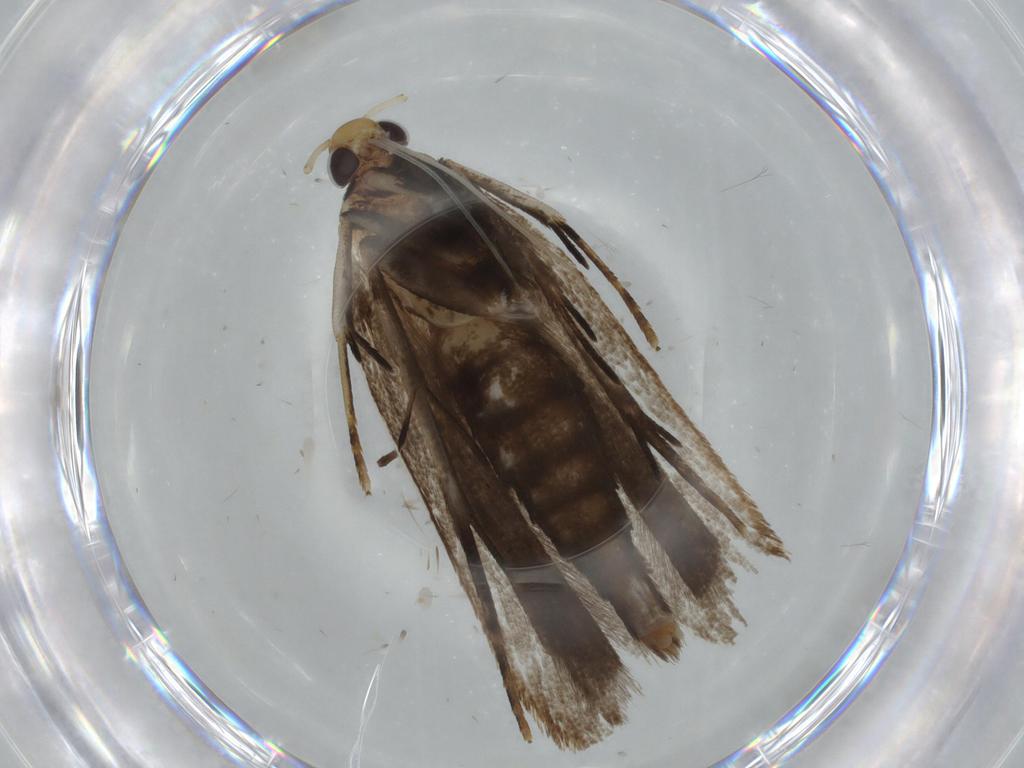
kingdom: Animalia
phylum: Arthropoda
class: Insecta
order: Lepidoptera
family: Gelechiidae
